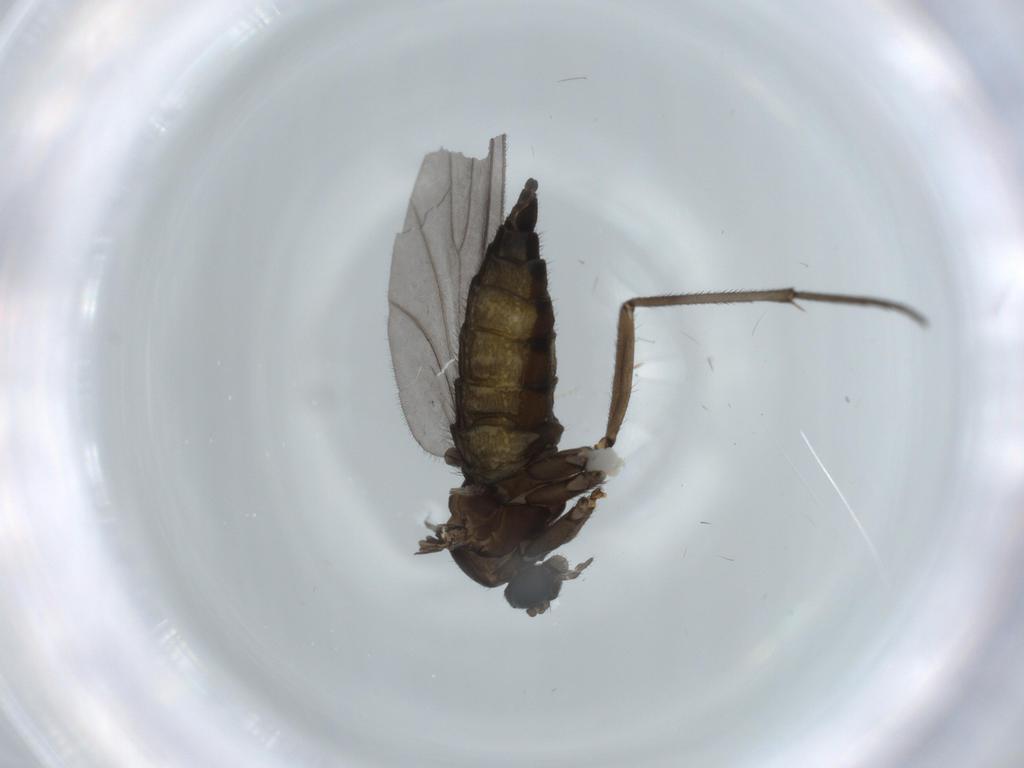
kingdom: Animalia
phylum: Arthropoda
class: Insecta
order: Diptera
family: Sciaridae
